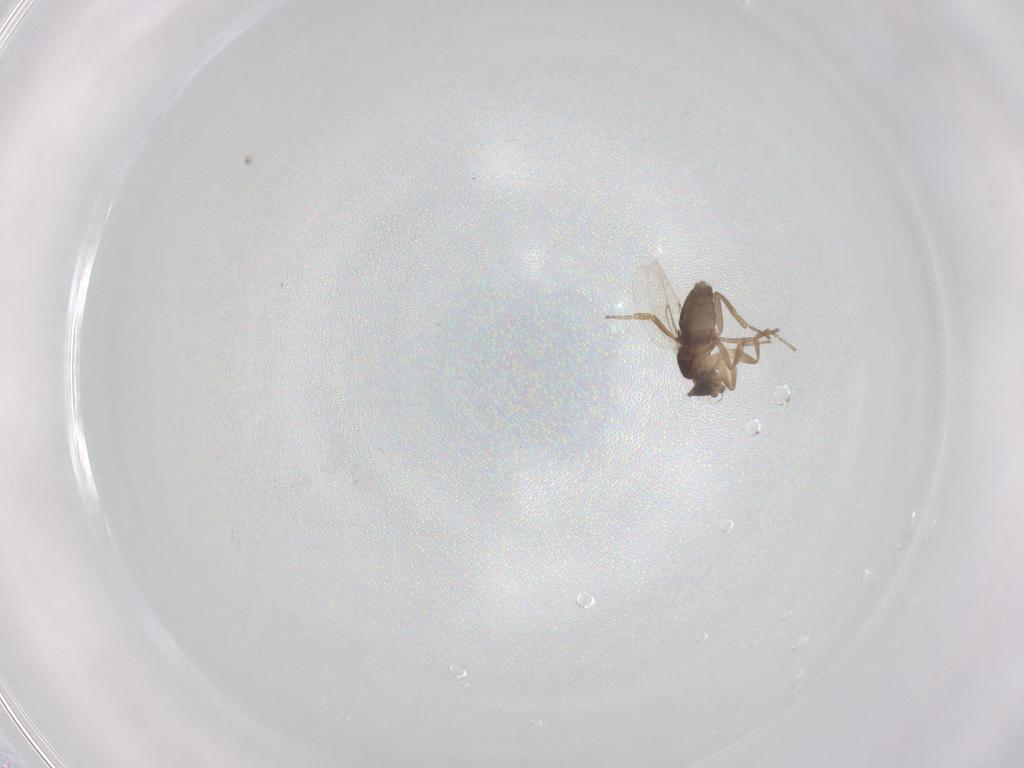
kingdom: Animalia
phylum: Arthropoda
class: Insecta
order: Diptera
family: Phoridae
